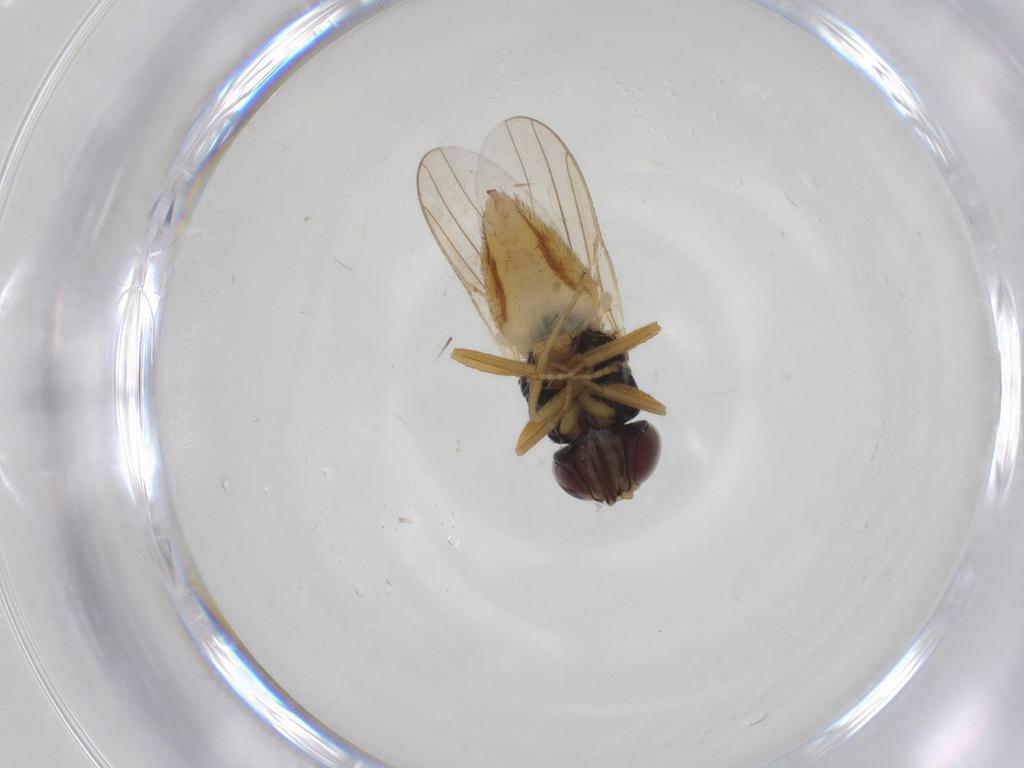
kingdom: Animalia
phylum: Arthropoda
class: Insecta
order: Diptera
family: Chloropidae
